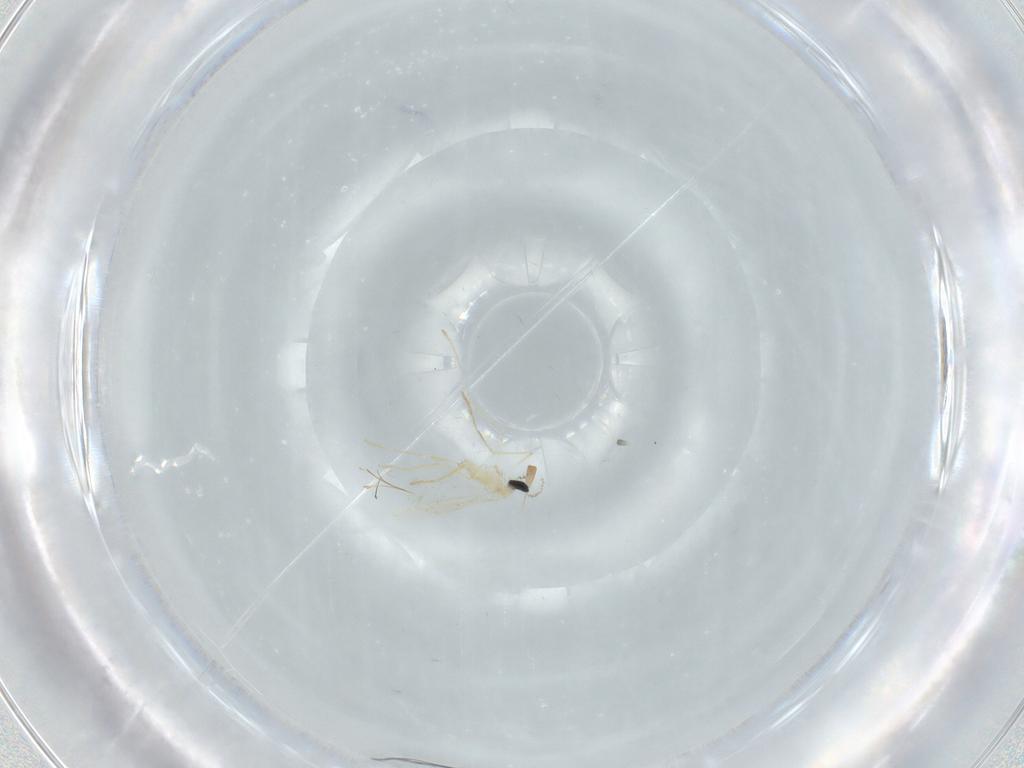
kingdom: Animalia
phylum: Arthropoda
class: Insecta
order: Diptera
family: Cecidomyiidae
